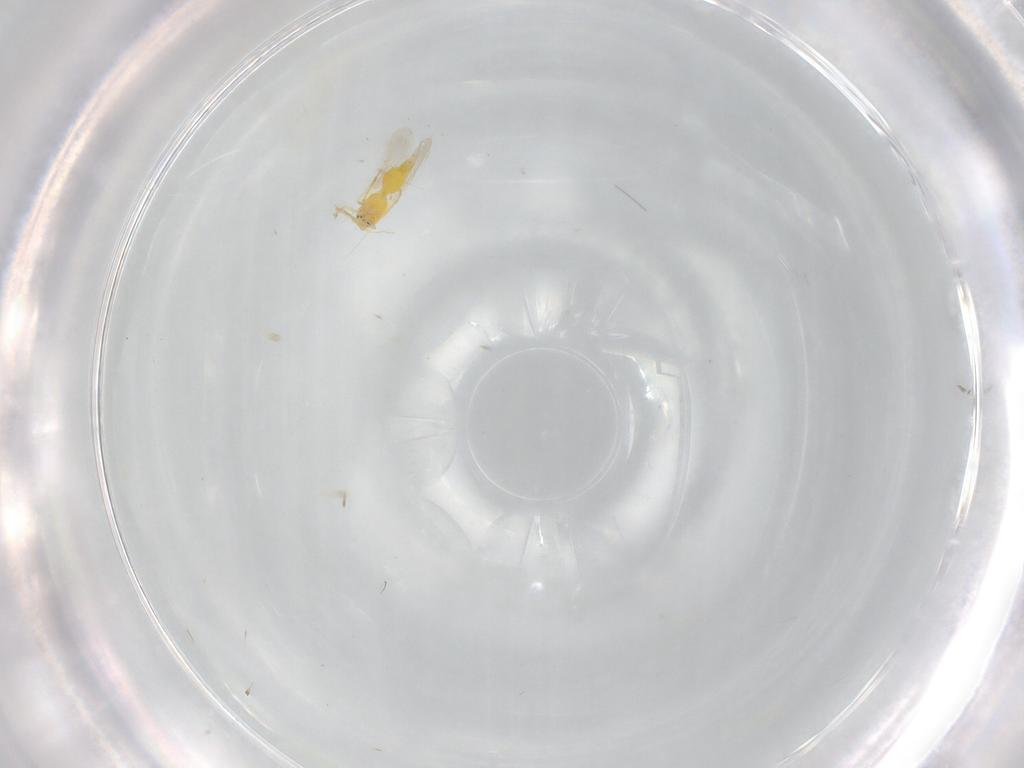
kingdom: Animalia
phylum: Arthropoda
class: Insecta
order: Hemiptera
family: Aleyrodidae
